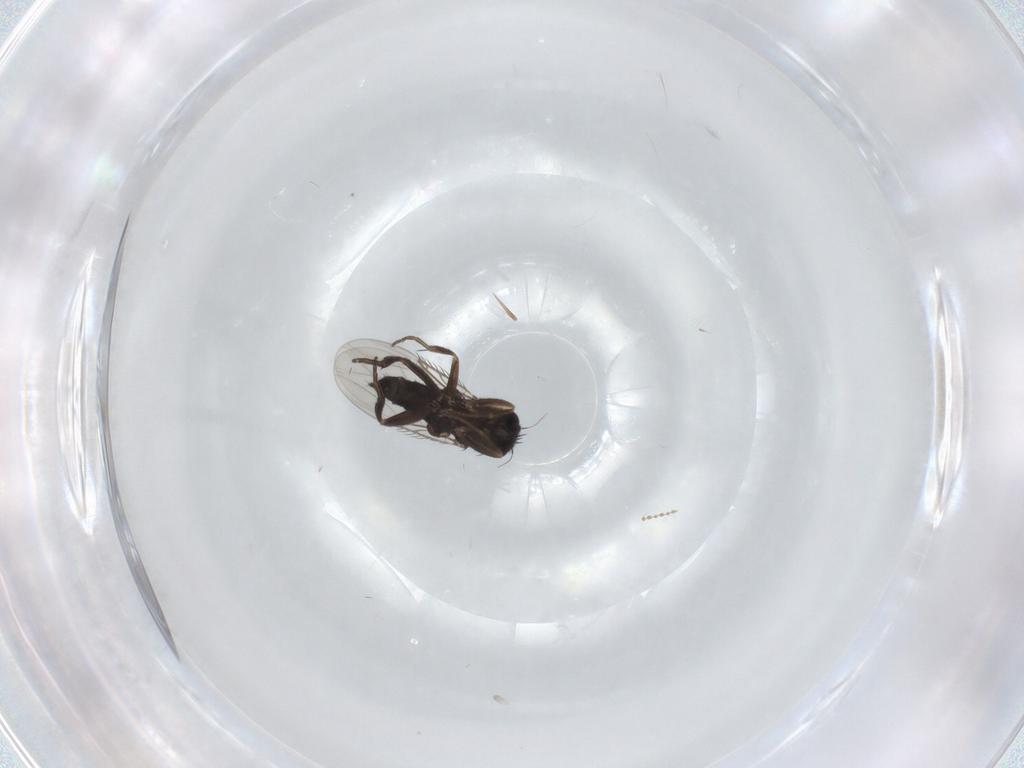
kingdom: Animalia
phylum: Arthropoda
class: Insecta
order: Diptera
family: Phoridae
